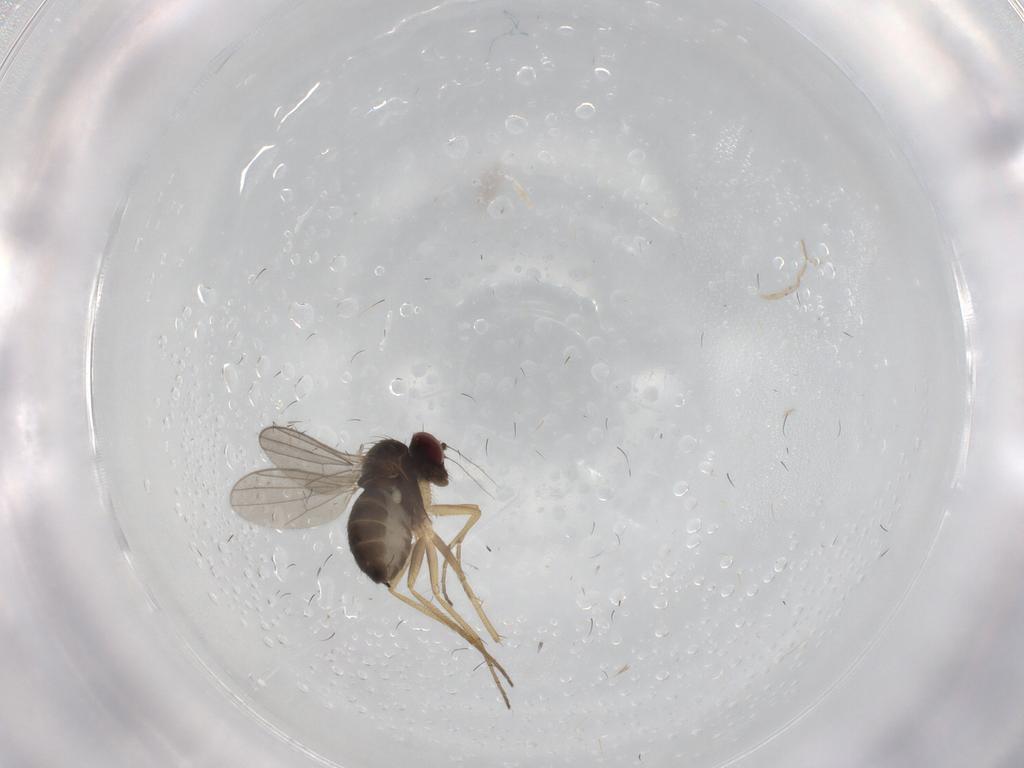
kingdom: Animalia
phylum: Arthropoda
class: Insecta
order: Diptera
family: Dolichopodidae
